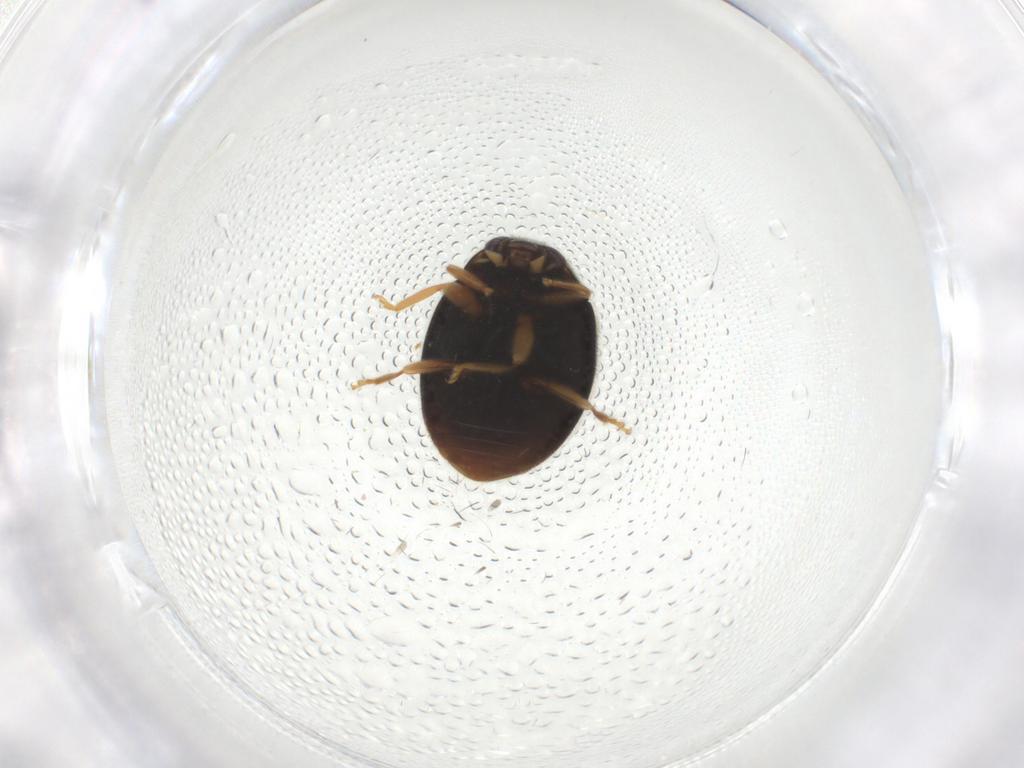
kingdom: Animalia
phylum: Arthropoda
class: Insecta
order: Coleoptera
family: Coccinellidae
